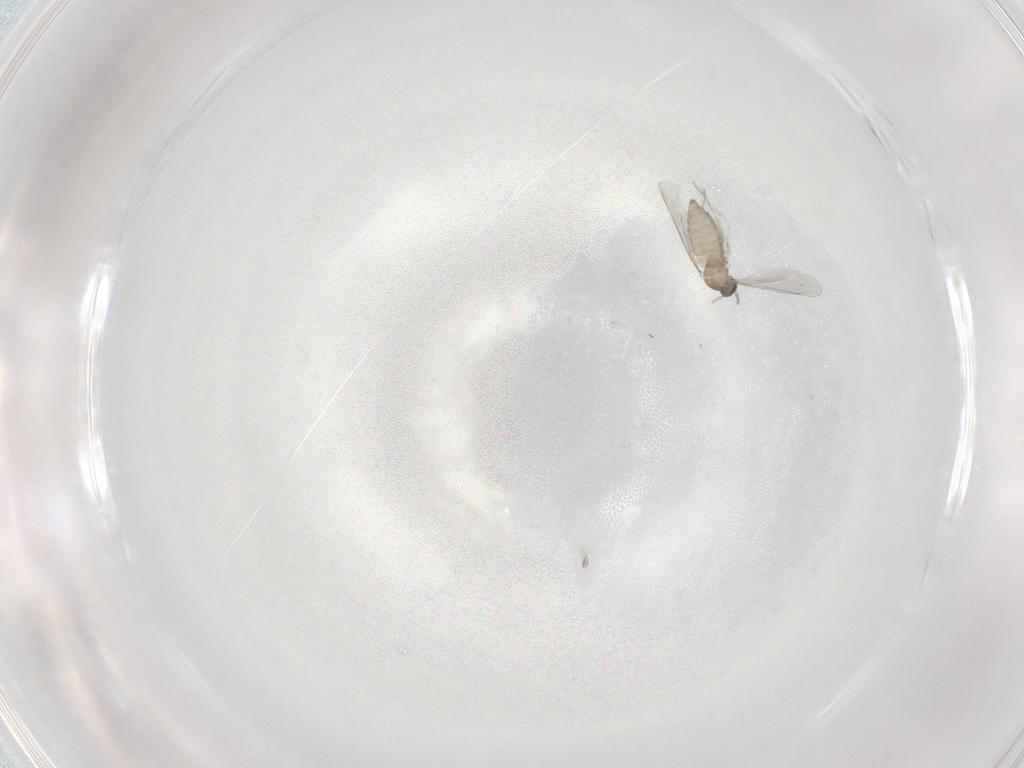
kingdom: Animalia
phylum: Arthropoda
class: Insecta
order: Diptera
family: Cecidomyiidae
